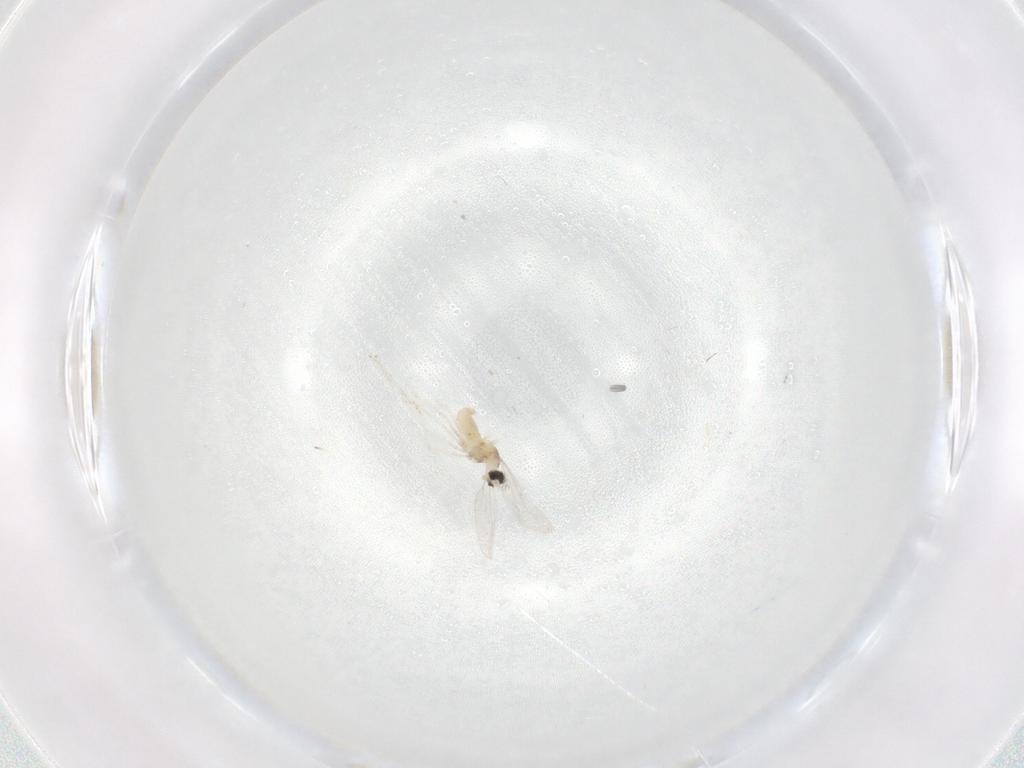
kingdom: Animalia
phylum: Arthropoda
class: Insecta
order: Diptera
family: Cecidomyiidae
